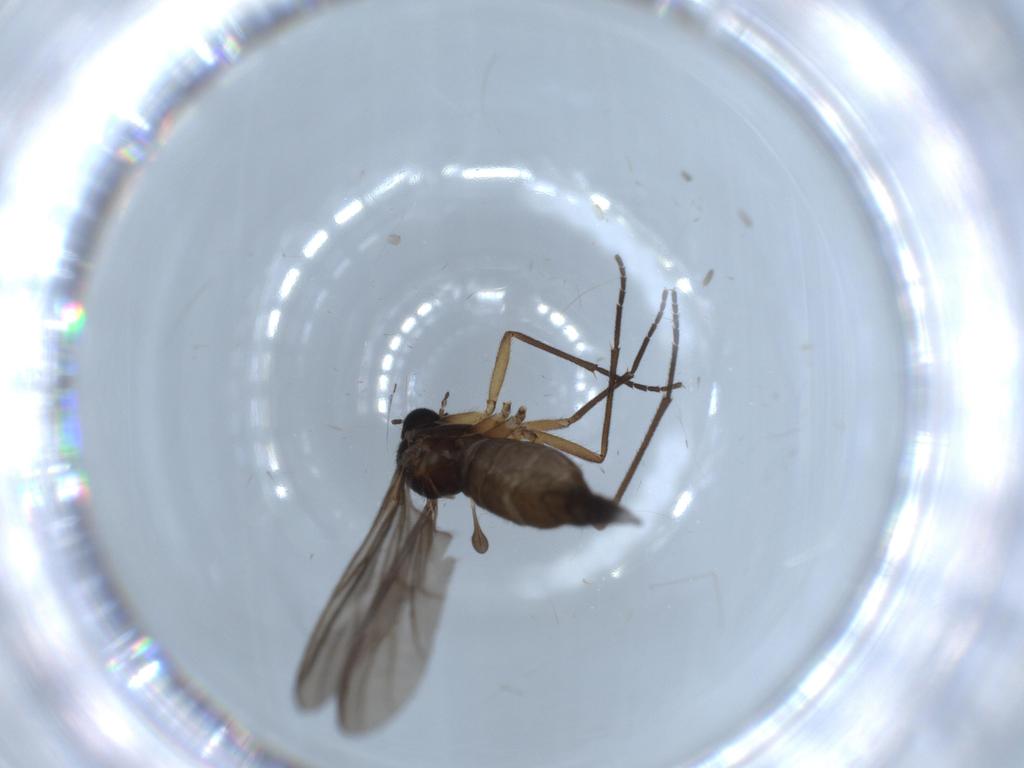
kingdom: Animalia
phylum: Arthropoda
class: Insecta
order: Diptera
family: Sciaridae
